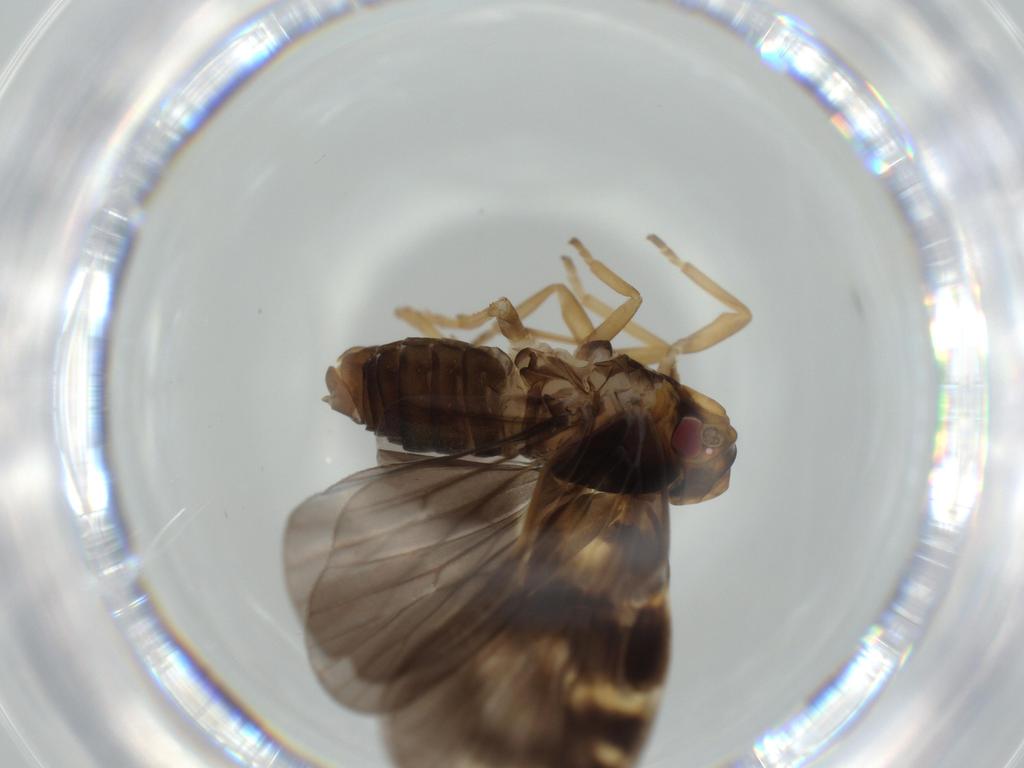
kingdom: Animalia
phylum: Arthropoda
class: Insecta
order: Hemiptera
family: Cixiidae
